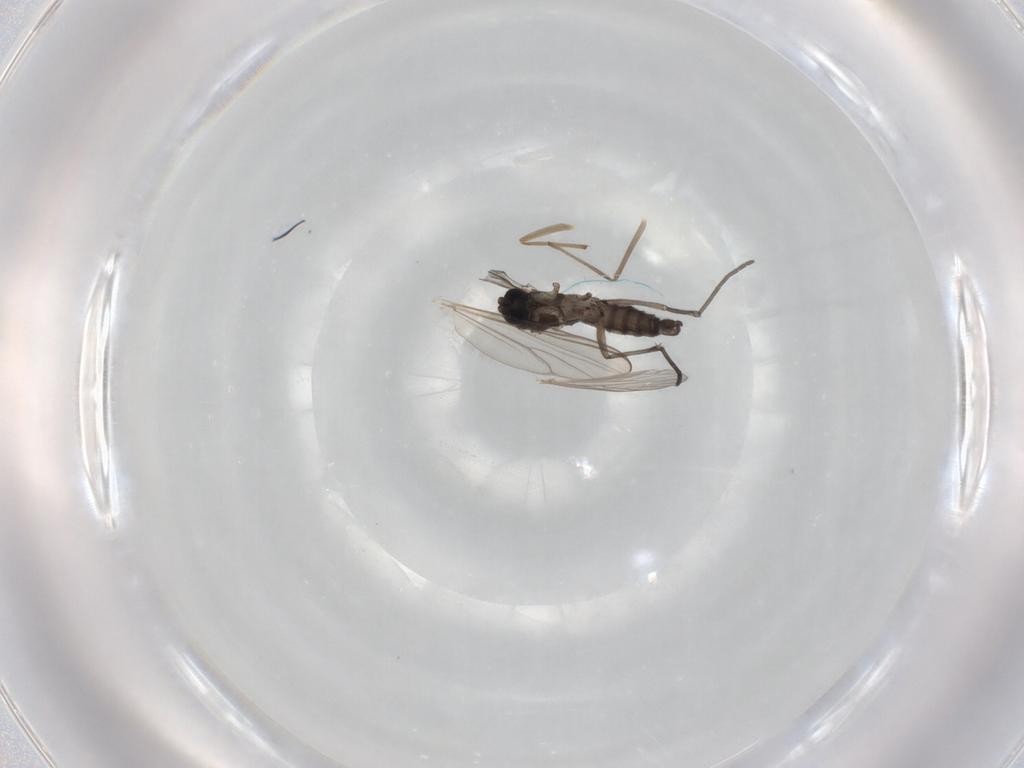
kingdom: Animalia
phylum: Arthropoda
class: Insecta
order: Diptera
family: Sciaridae
